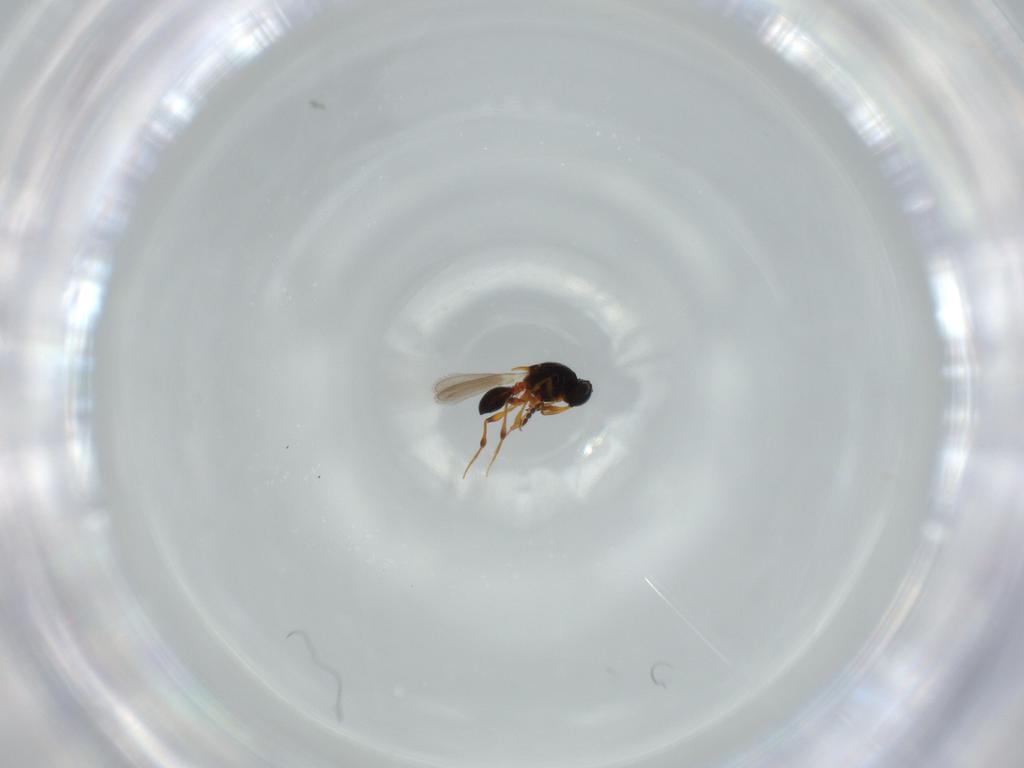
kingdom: Animalia
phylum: Arthropoda
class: Insecta
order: Hymenoptera
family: Platygastridae
